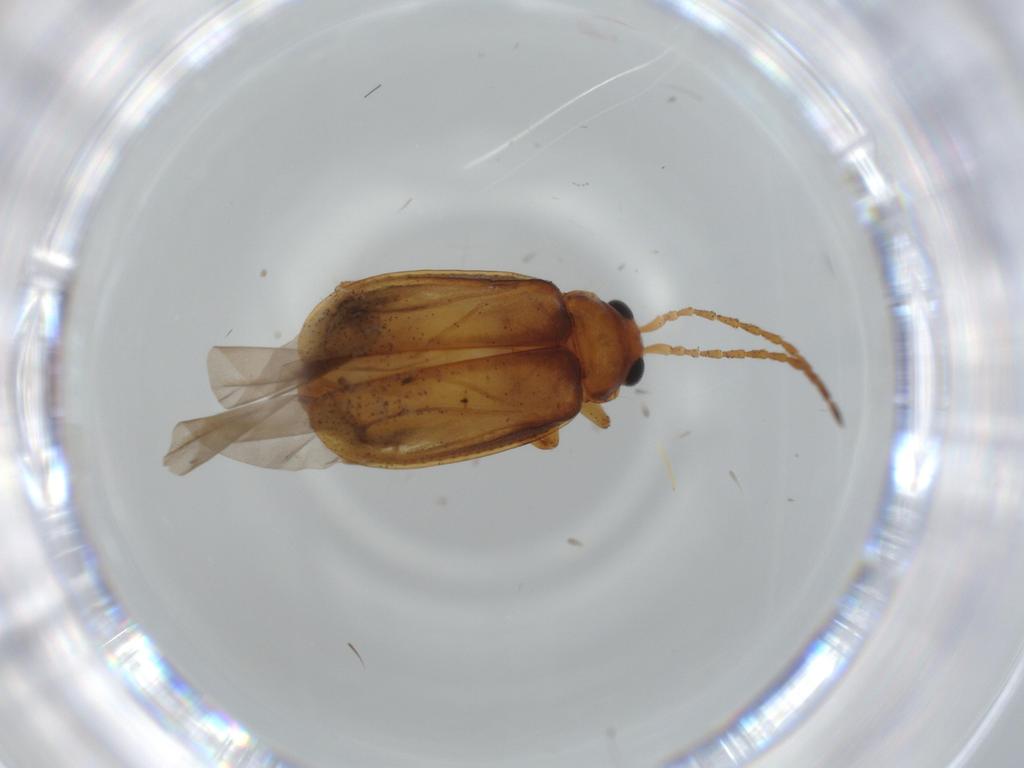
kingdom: Animalia
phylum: Arthropoda
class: Insecta
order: Coleoptera
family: Chrysomelidae
